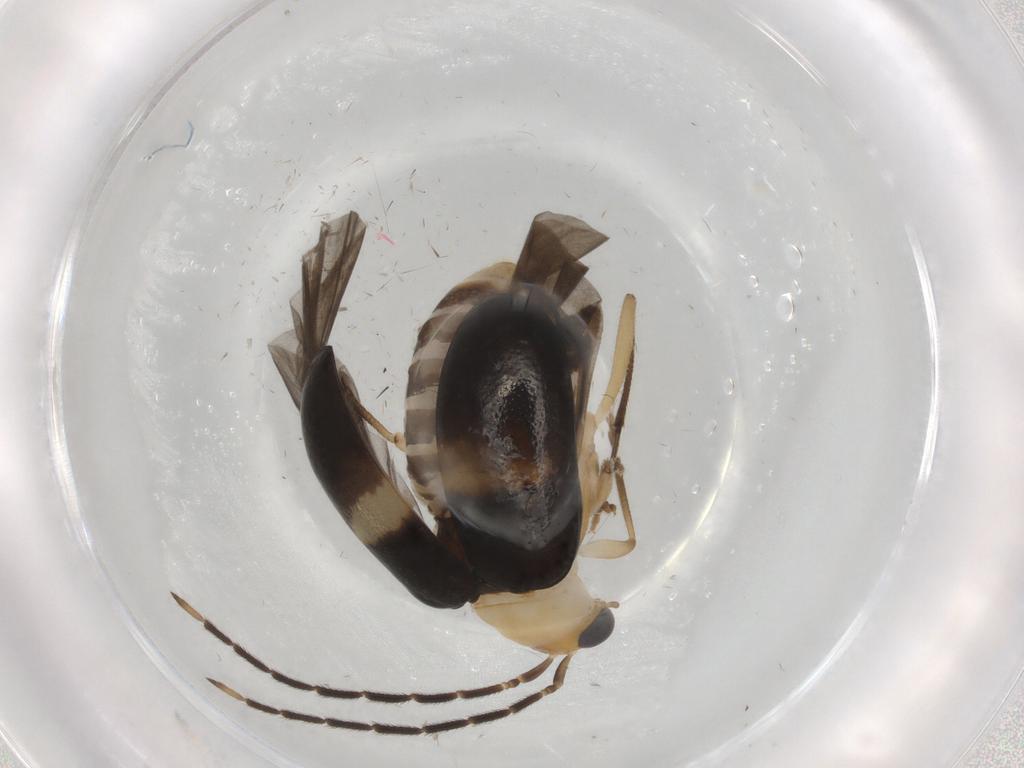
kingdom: Animalia
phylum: Arthropoda
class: Insecta
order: Coleoptera
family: Chrysomelidae
